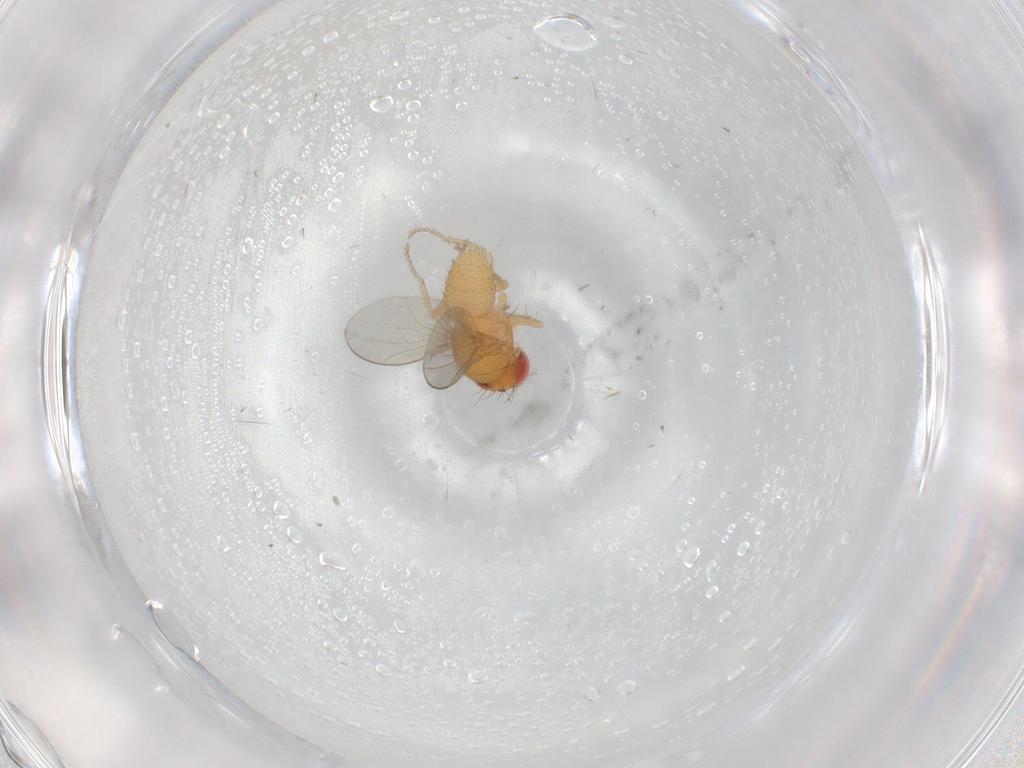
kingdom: Animalia
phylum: Arthropoda
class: Insecta
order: Diptera
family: Drosophilidae
